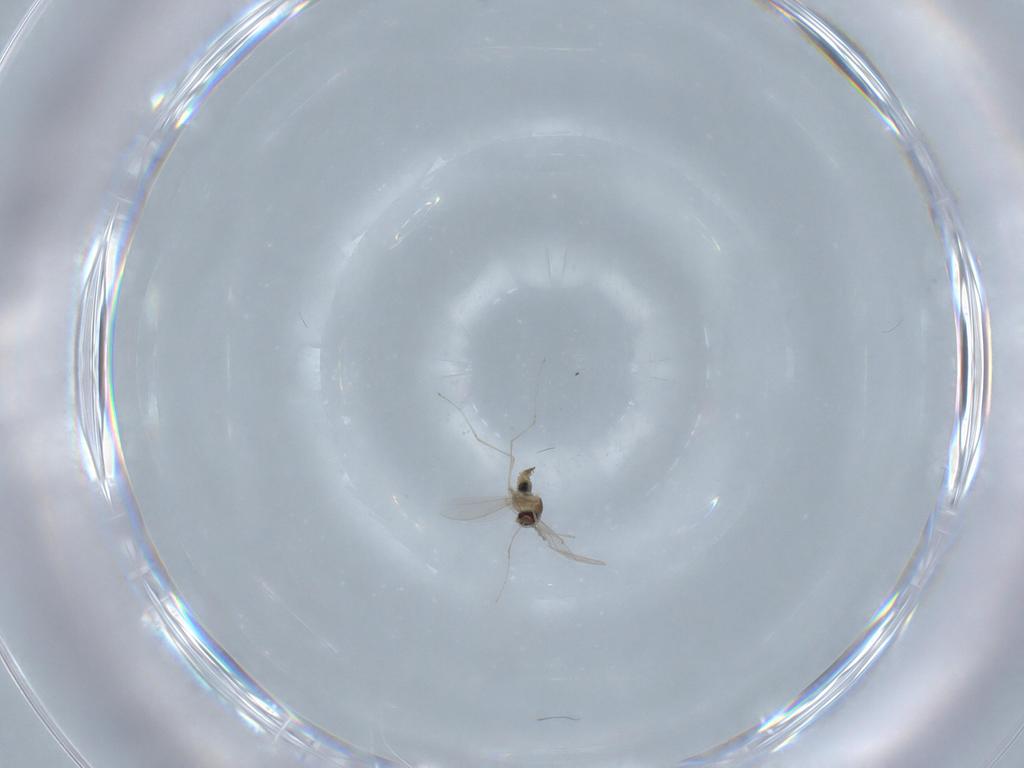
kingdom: Animalia
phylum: Arthropoda
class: Insecta
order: Diptera
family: Cecidomyiidae
